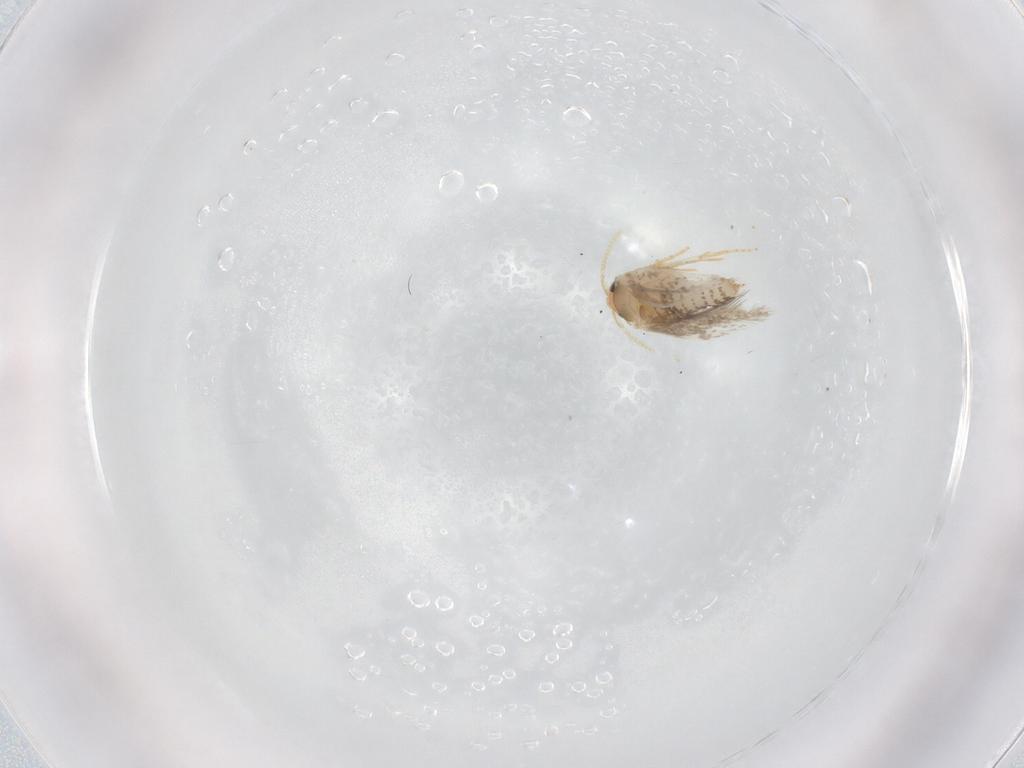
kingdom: Animalia
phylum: Arthropoda
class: Insecta
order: Lepidoptera
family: Nepticulidae
